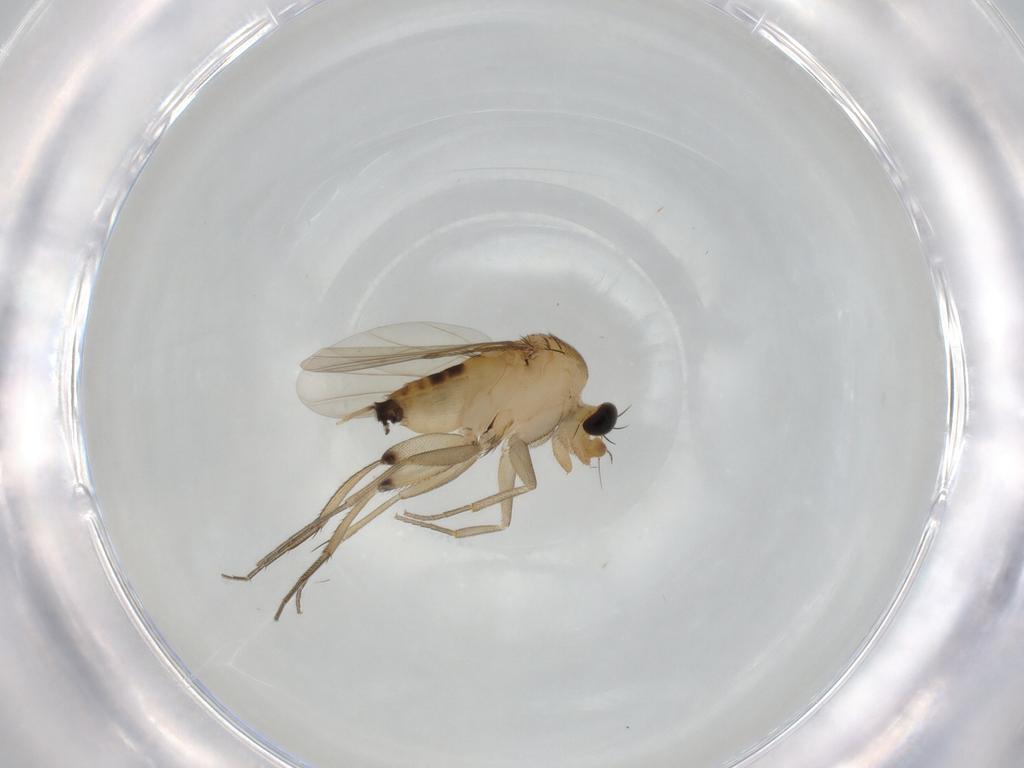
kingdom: Animalia
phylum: Arthropoda
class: Insecta
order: Diptera
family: Phoridae
